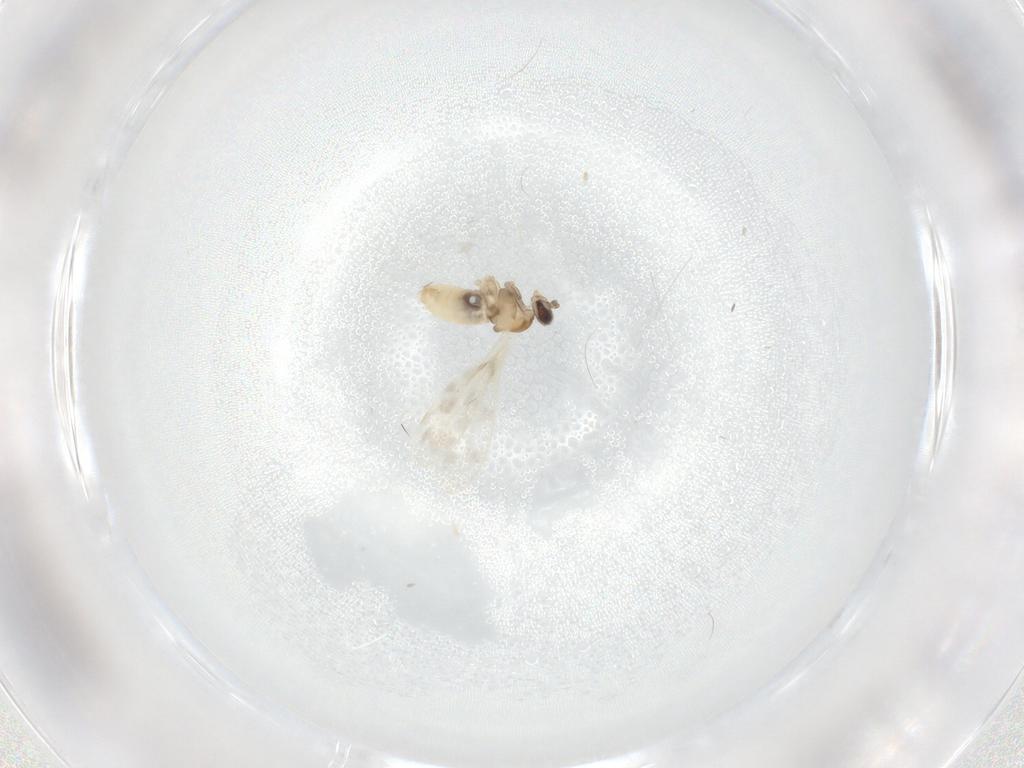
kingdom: Animalia
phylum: Arthropoda
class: Insecta
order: Diptera
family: Cecidomyiidae
